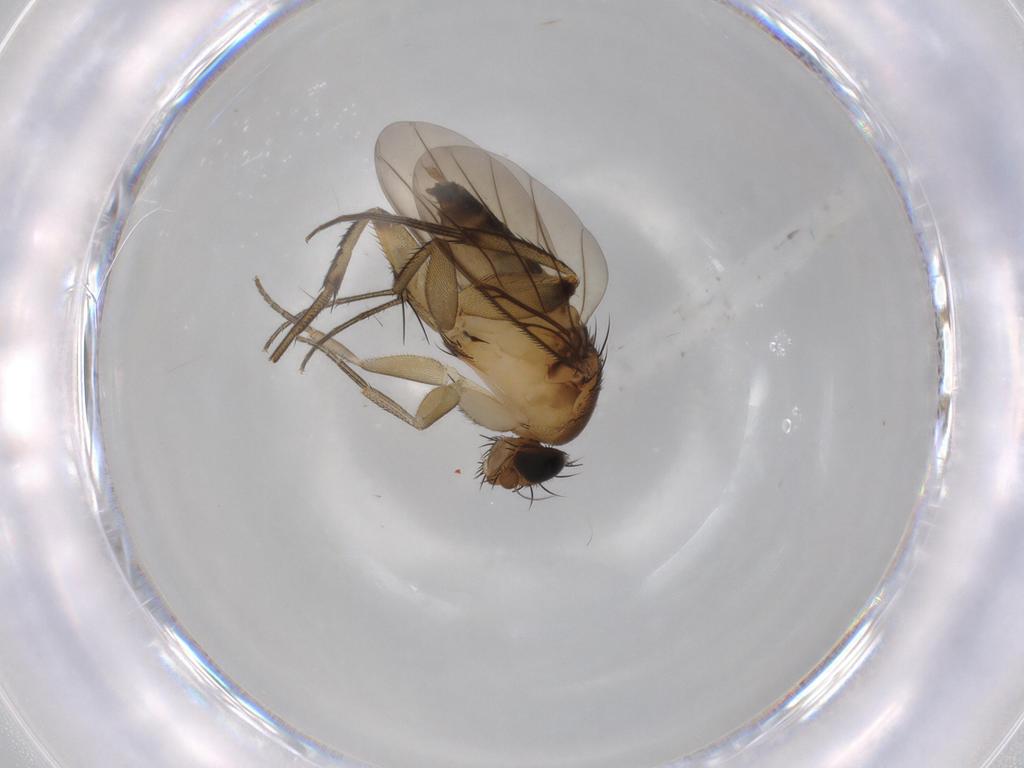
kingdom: Animalia
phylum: Arthropoda
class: Insecta
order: Diptera
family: Phoridae
